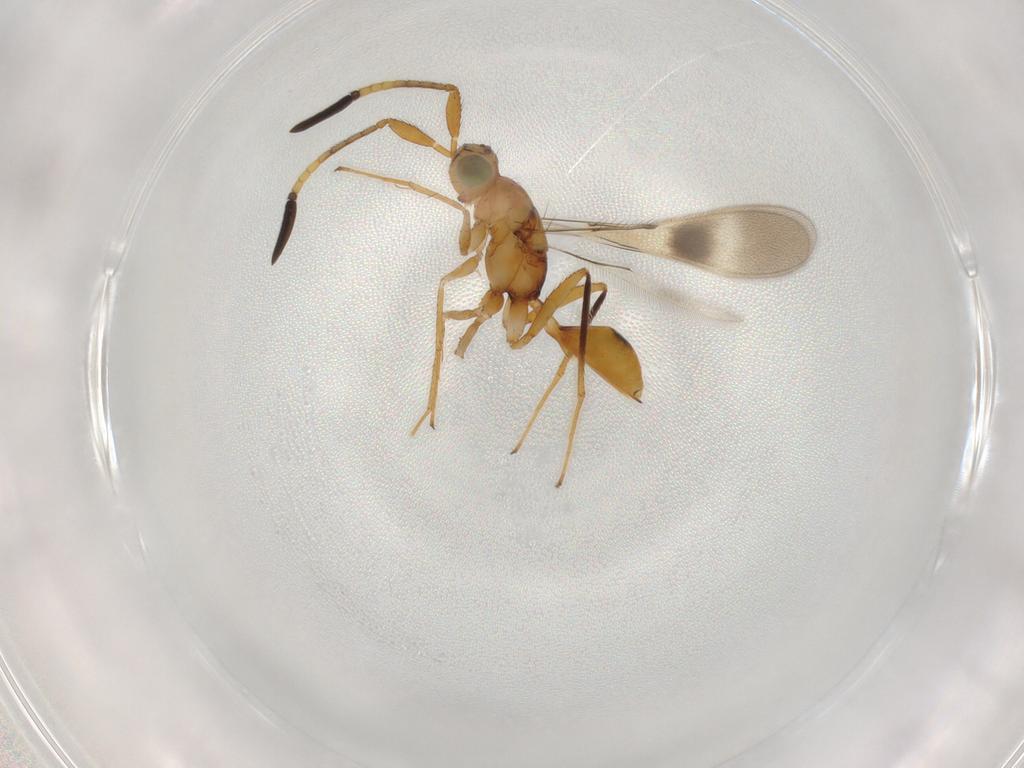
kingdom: Animalia
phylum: Arthropoda
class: Insecta
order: Hymenoptera
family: Mymaridae
